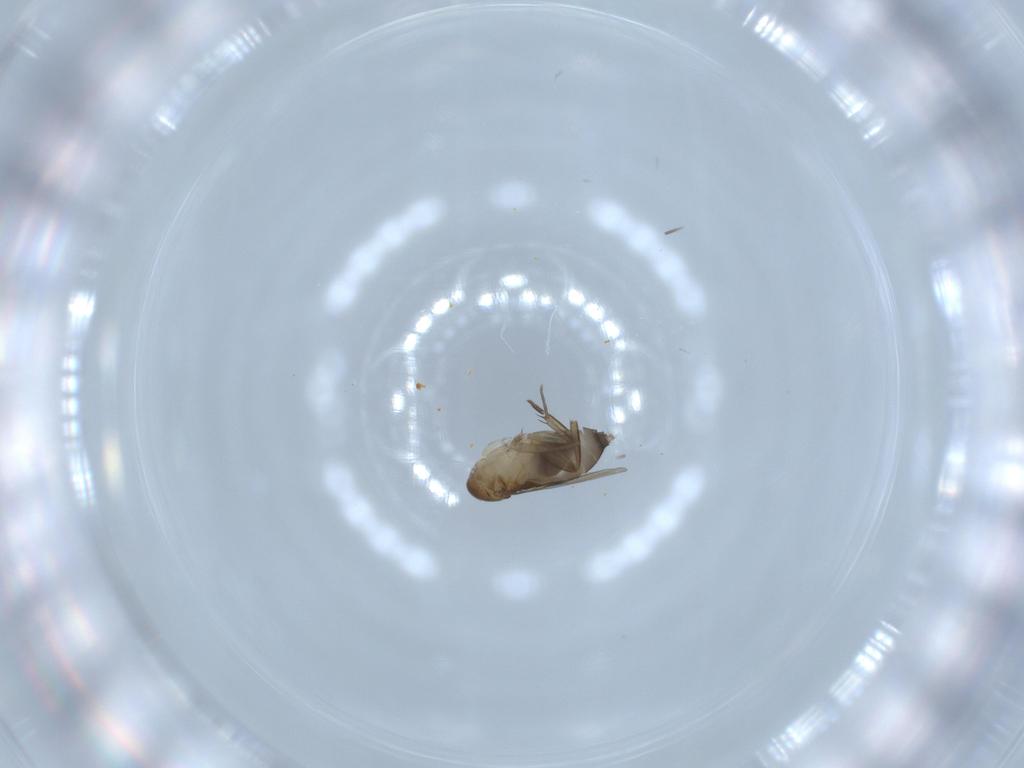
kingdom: Animalia
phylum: Arthropoda
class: Insecta
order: Diptera
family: Phoridae
